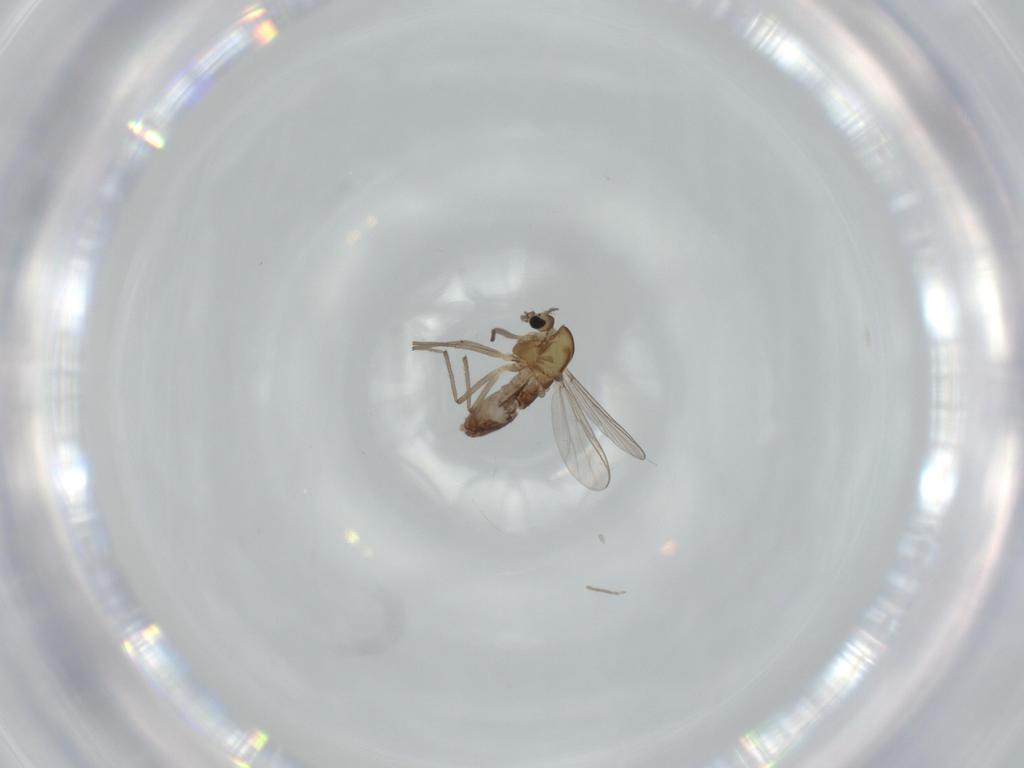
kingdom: Animalia
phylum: Arthropoda
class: Insecta
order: Diptera
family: Chironomidae
